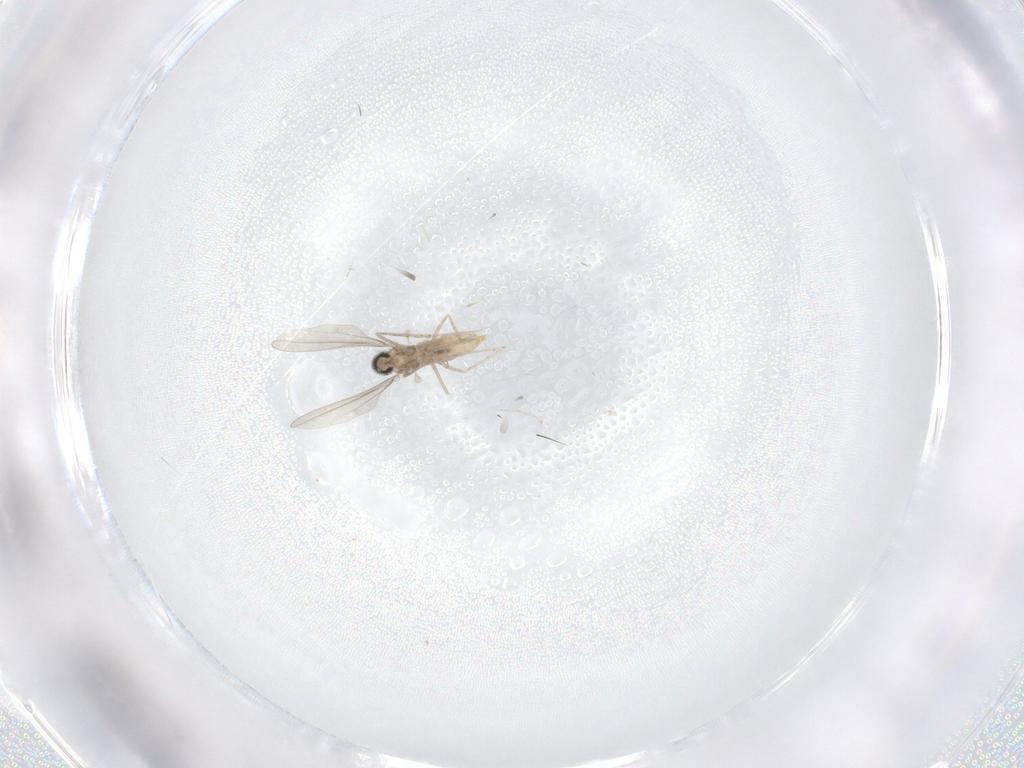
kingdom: Animalia
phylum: Arthropoda
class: Insecta
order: Diptera
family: Cecidomyiidae
